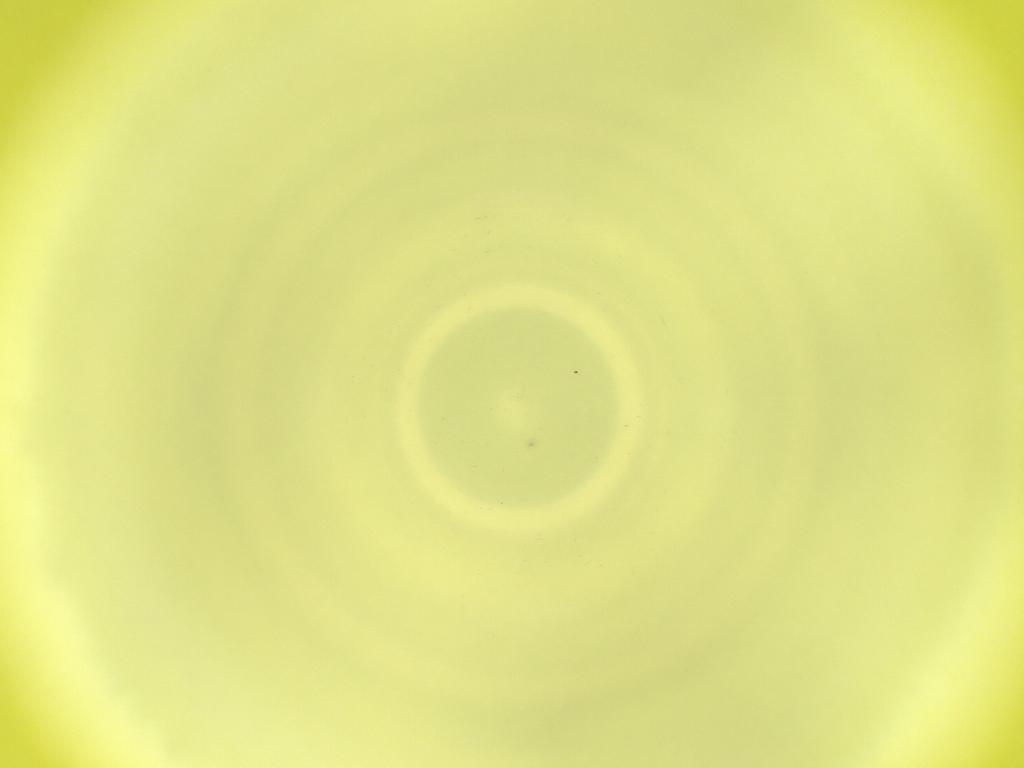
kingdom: Animalia
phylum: Arthropoda
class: Insecta
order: Diptera
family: Cecidomyiidae
